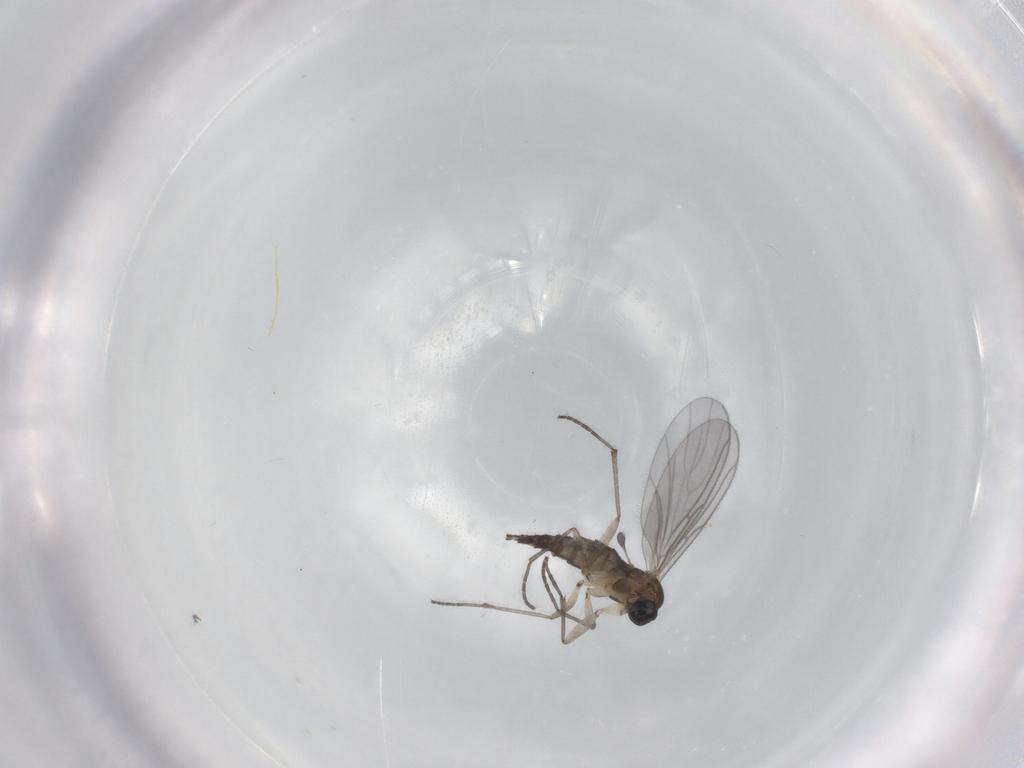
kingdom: Animalia
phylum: Arthropoda
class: Insecta
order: Diptera
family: Sciaridae
